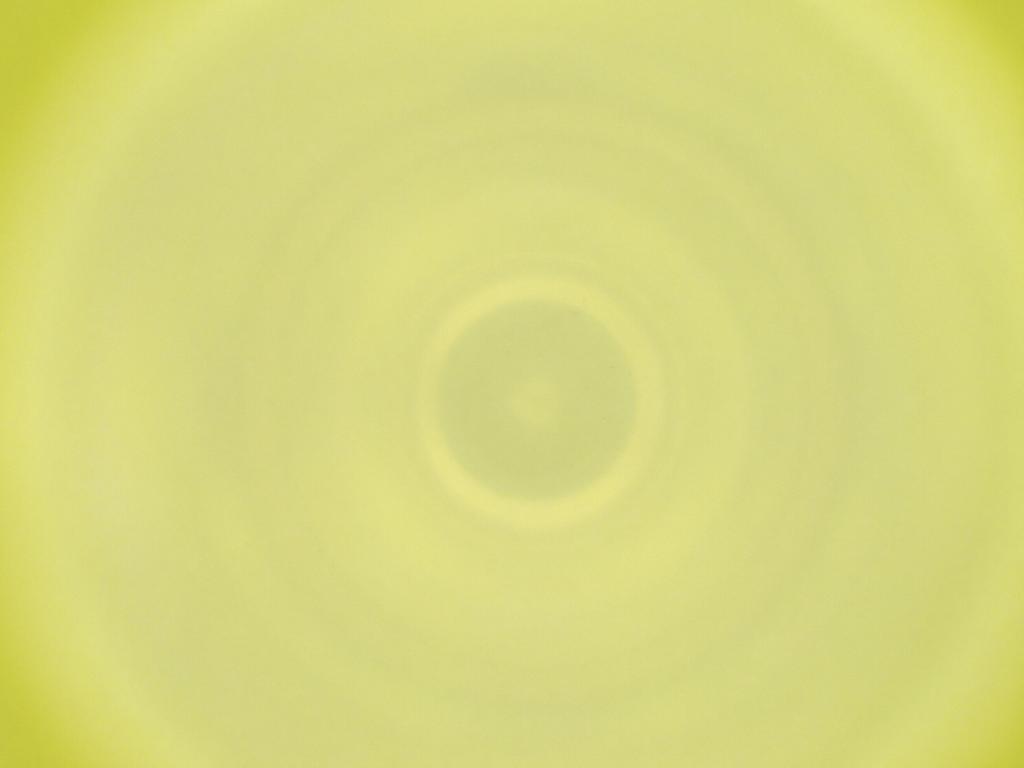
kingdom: Animalia
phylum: Arthropoda
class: Insecta
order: Diptera
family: Cecidomyiidae
